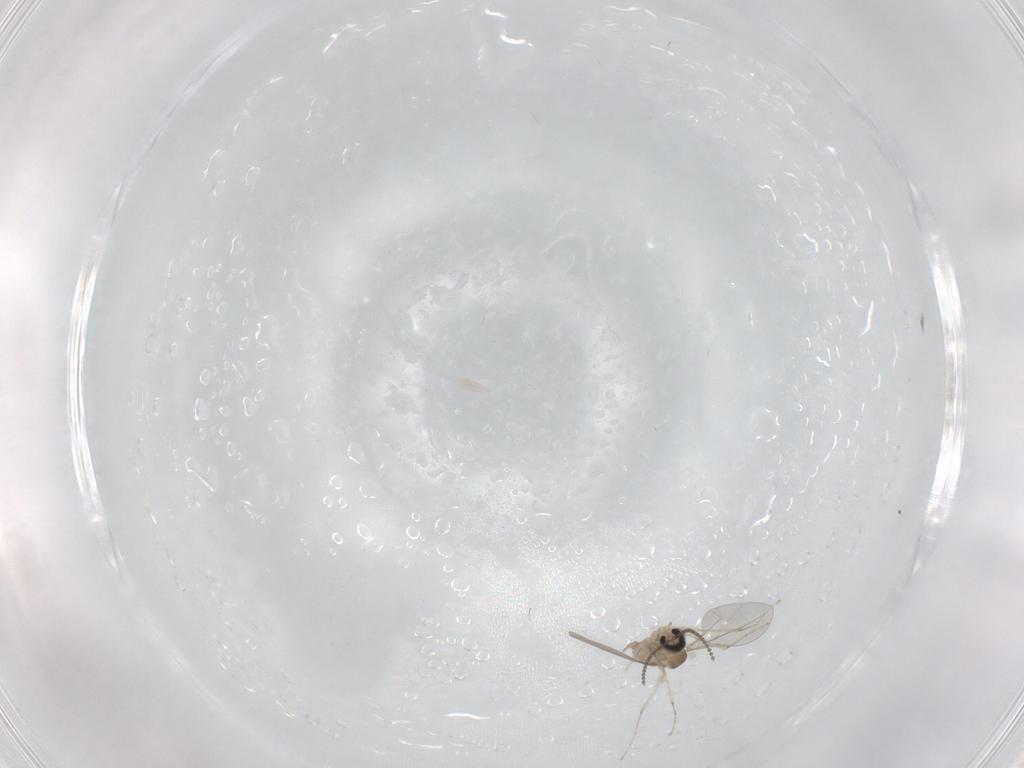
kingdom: Animalia
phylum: Arthropoda
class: Insecta
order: Diptera
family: Cecidomyiidae
